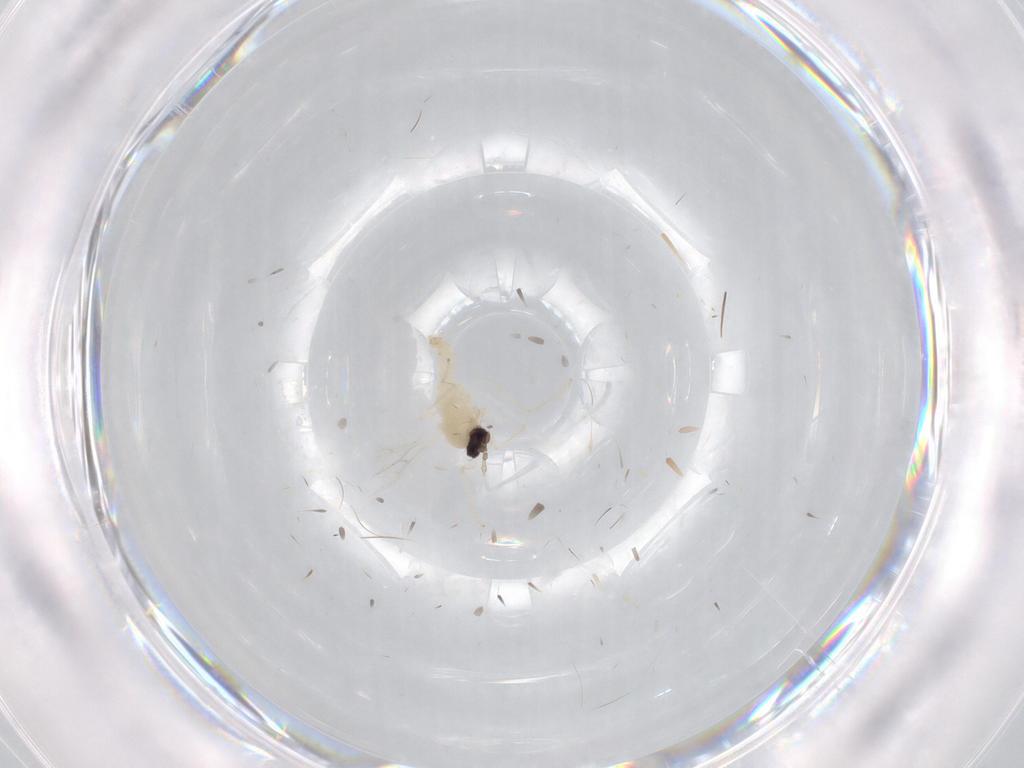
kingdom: Animalia
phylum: Arthropoda
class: Insecta
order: Diptera
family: Cecidomyiidae
